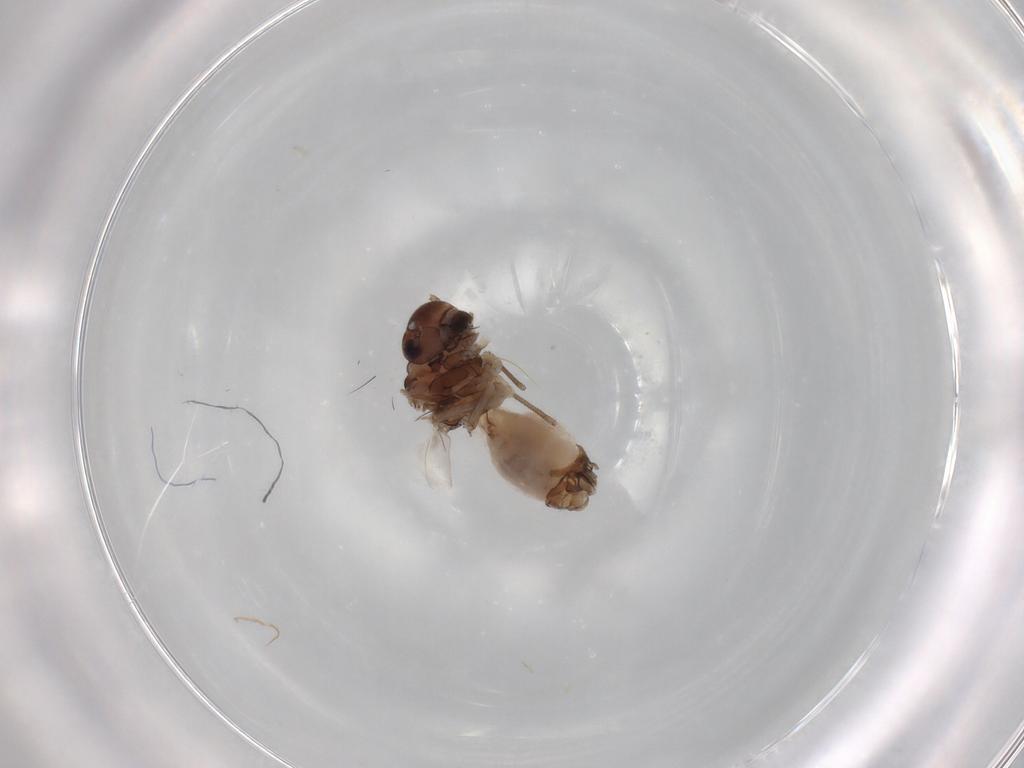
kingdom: Animalia
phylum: Arthropoda
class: Insecta
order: Psocodea
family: Peripsocidae
